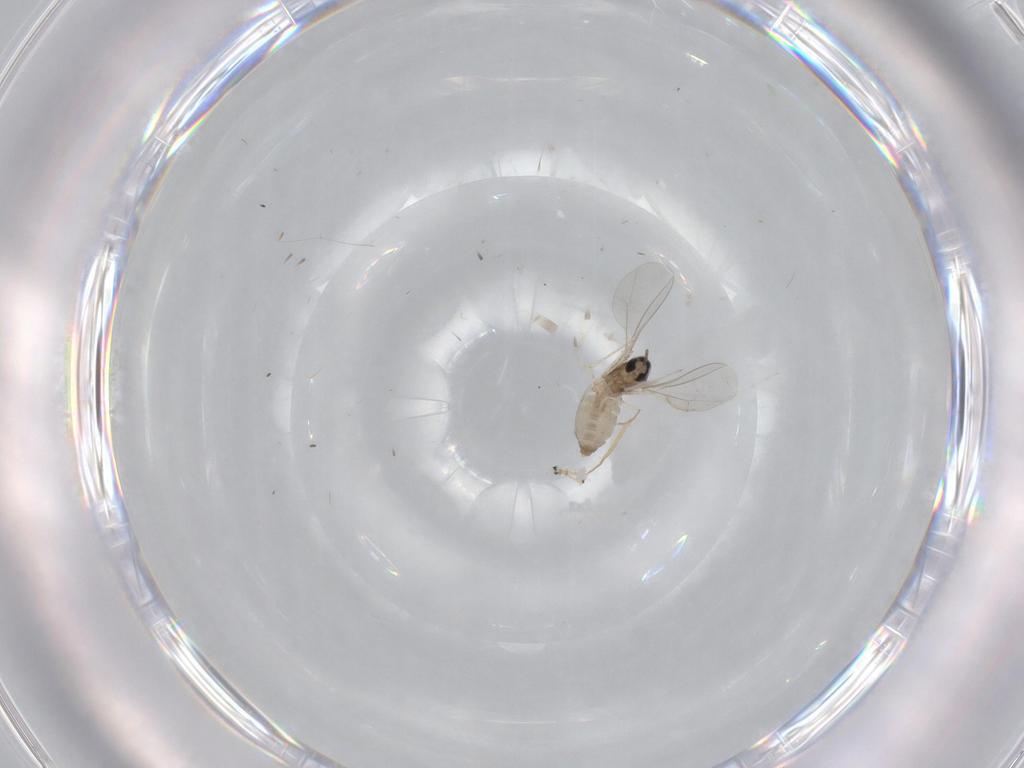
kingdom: Animalia
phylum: Arthropoda
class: Insecta
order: Diptera
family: Cecidomyiidae
